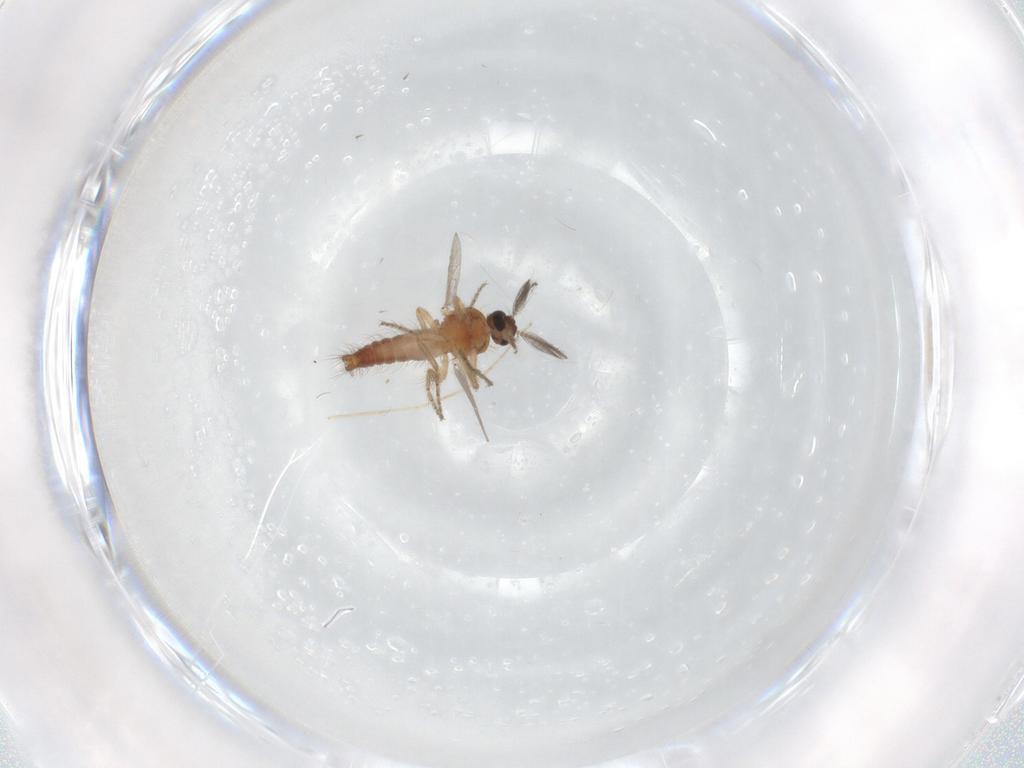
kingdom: Animalia
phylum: Arthropoda
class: Insecta
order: Diptera
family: Ceratopogonidae
